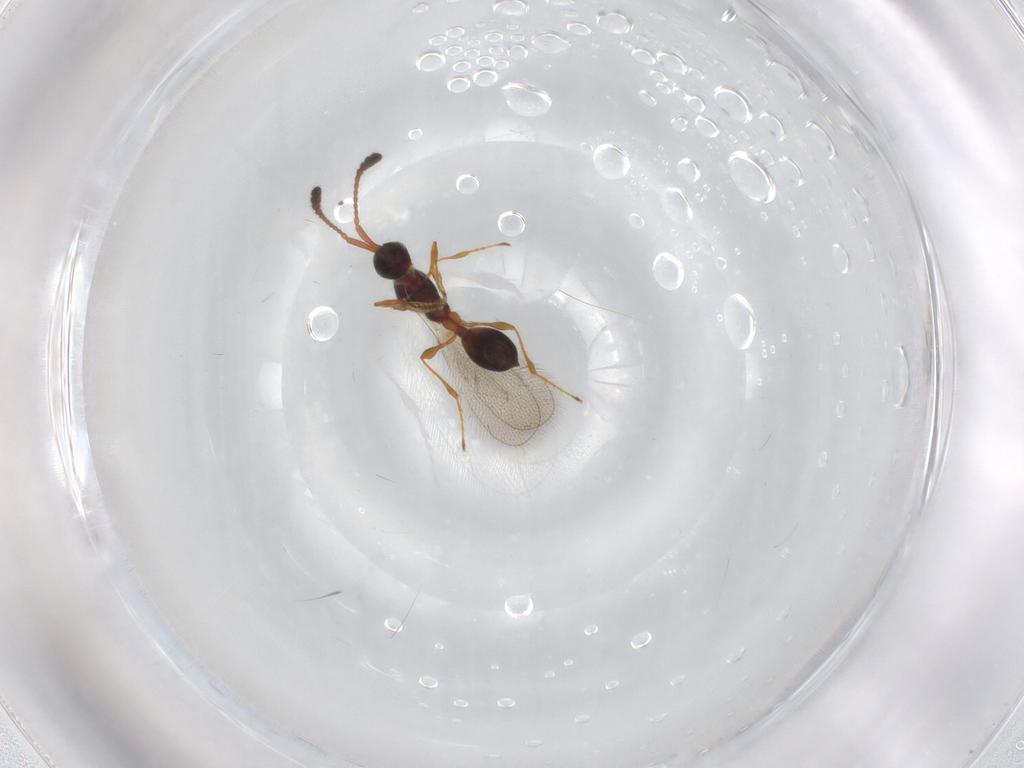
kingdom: Animalia
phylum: Arthropoda
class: Insecta
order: Hymenoptera
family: Diapriidae
